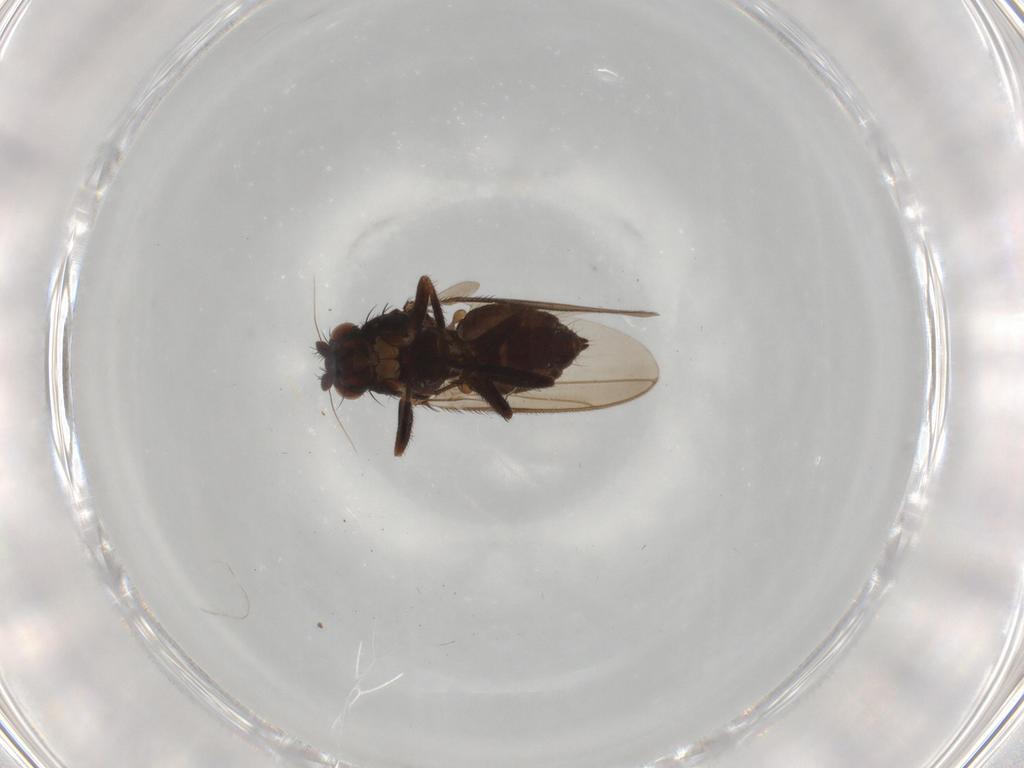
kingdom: Animalia
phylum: Arthropoda
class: Insecta
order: Diptera
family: Sphaeroceridae
